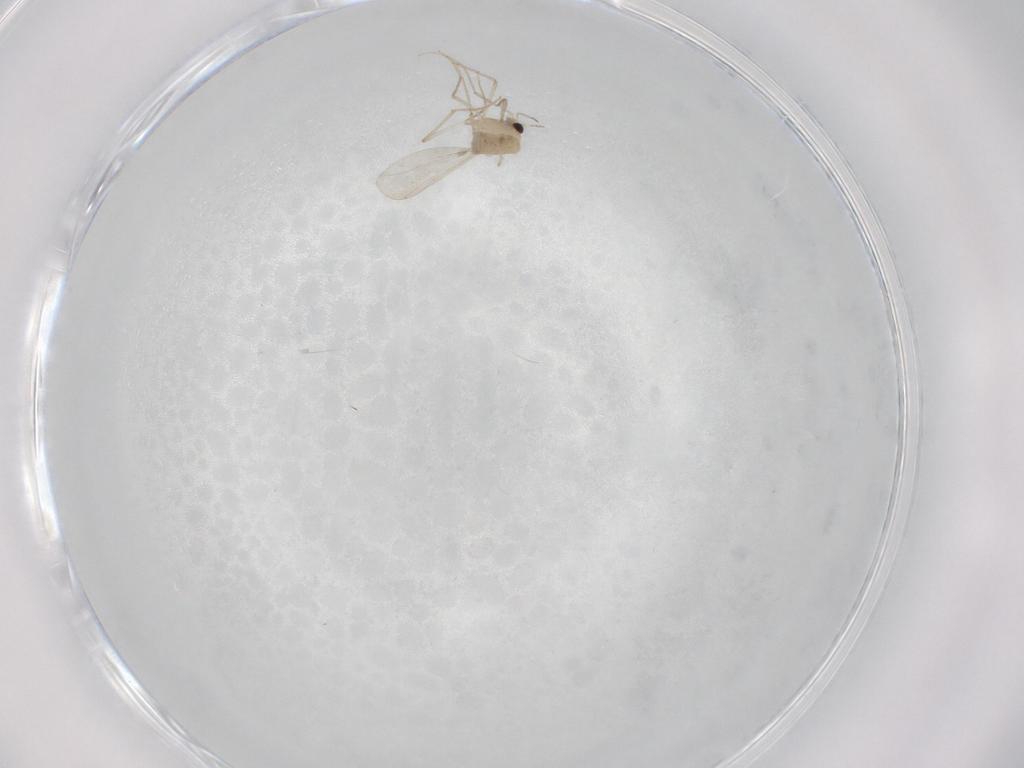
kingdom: Animalia
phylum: Arthropoda
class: Insecta
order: Diptera
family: Chironomidae
